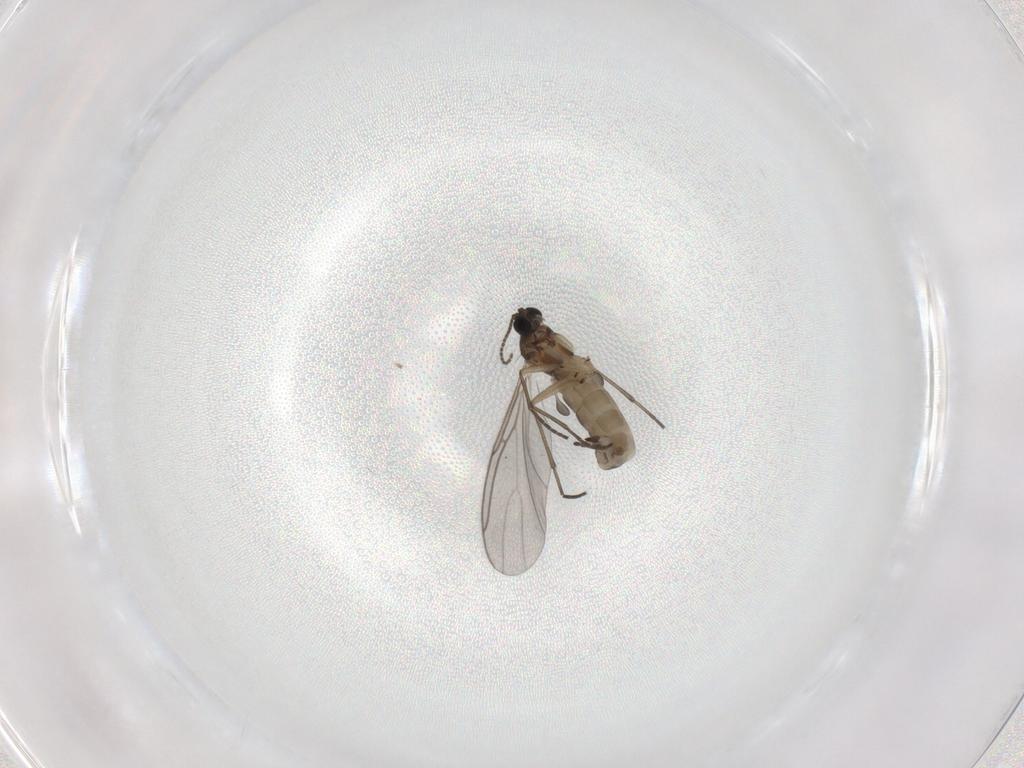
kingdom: Animalia
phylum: Arthropoda
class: Insecta
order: Diptera
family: Sciaridae
